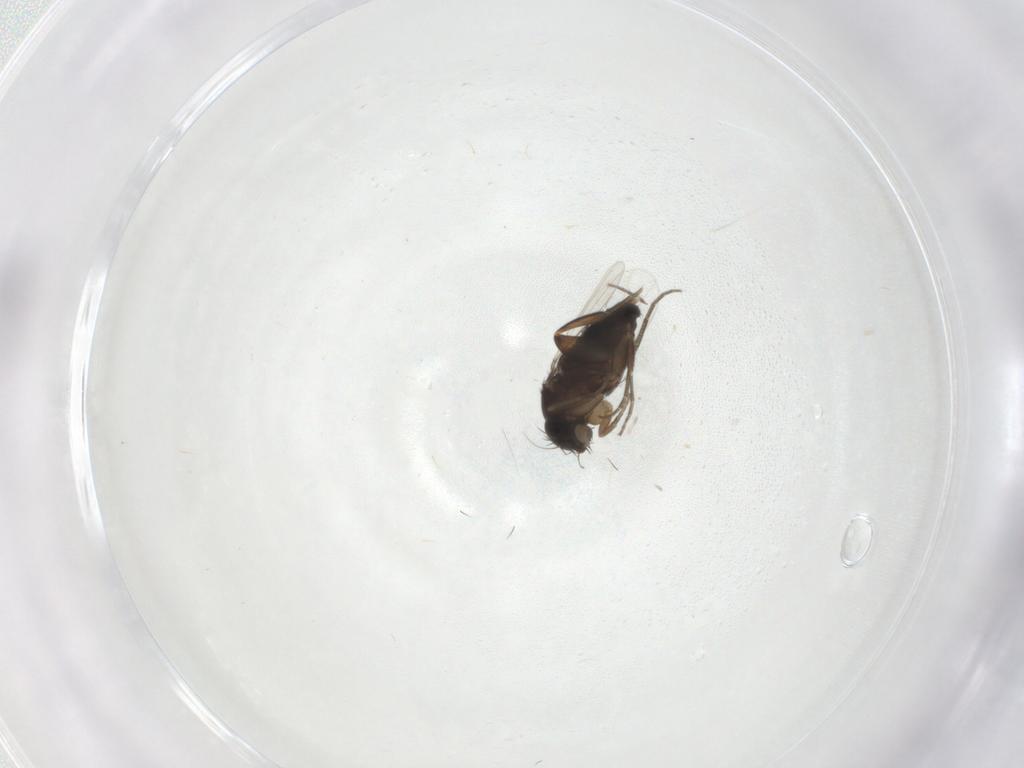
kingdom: Animalia
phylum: Arthropoda
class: Insecta
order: Diptera
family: Phoridae
